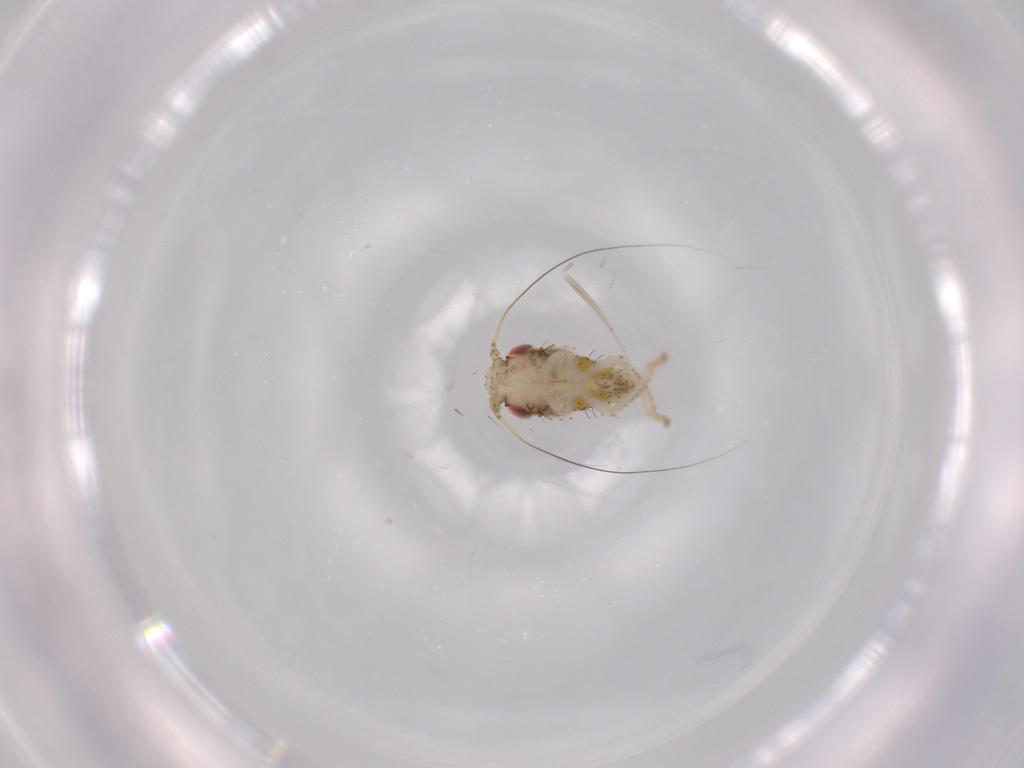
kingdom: Animalia
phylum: Arthropoda
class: Insecta
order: Hemiptera
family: Cicadellidae
